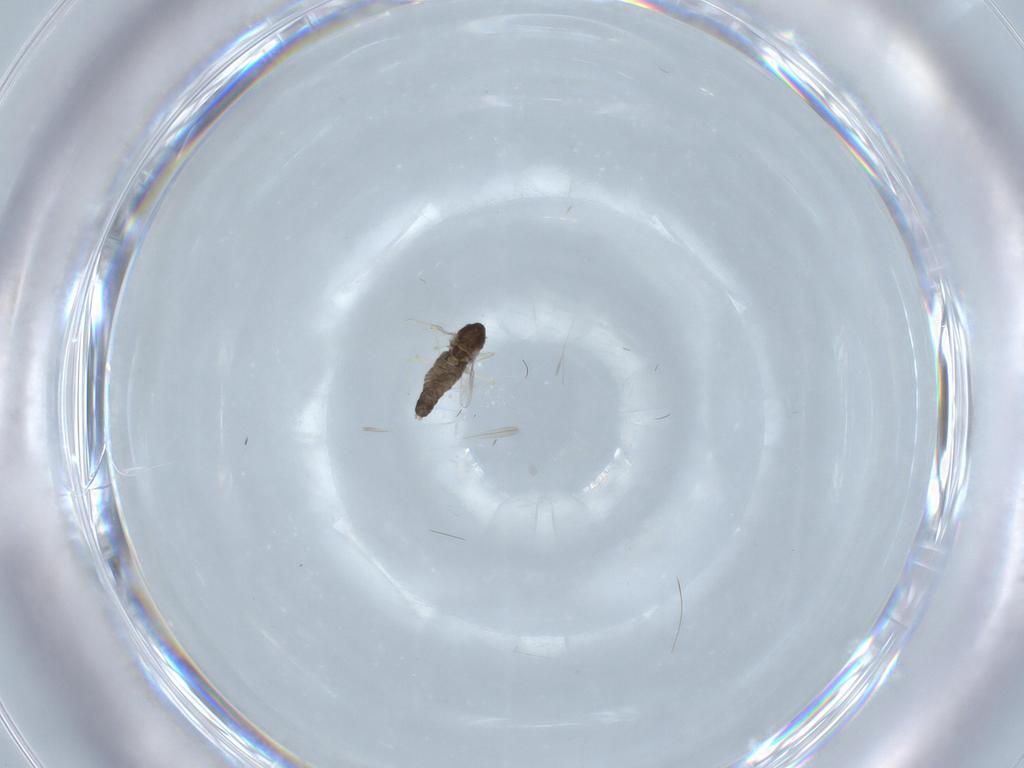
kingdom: Animalia
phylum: Arthropoda
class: Insecta
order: Diptera
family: Chironomidae
